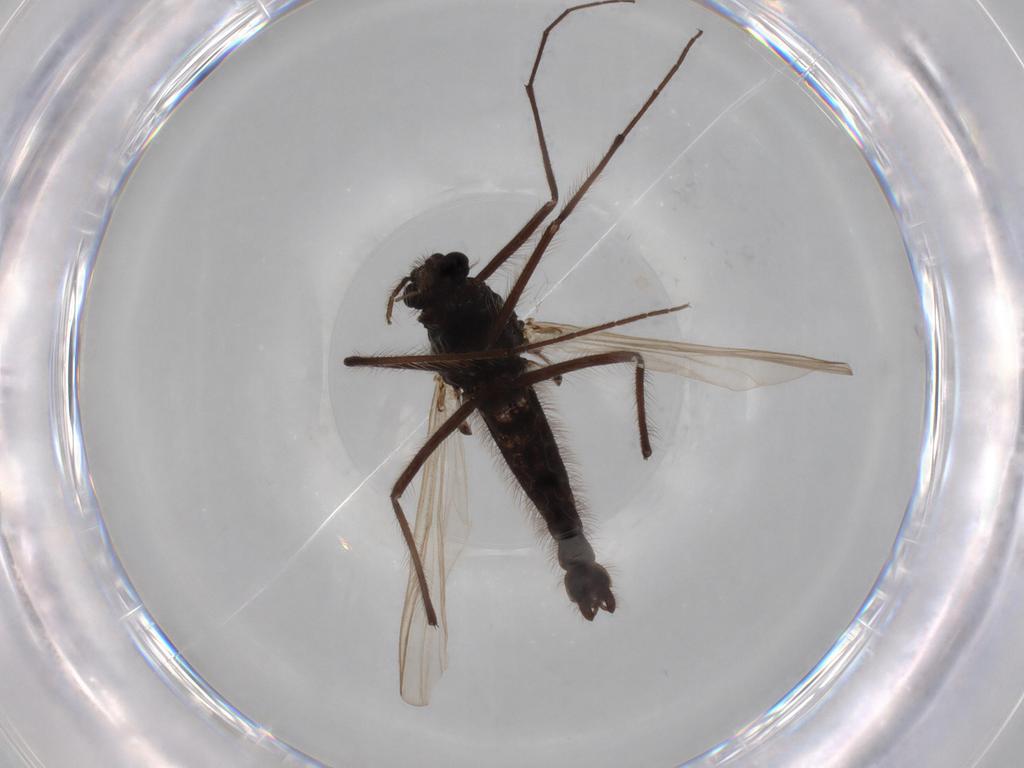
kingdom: Animalia
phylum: Arthropoda
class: Insecta
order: Diptera
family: Chironomidae
